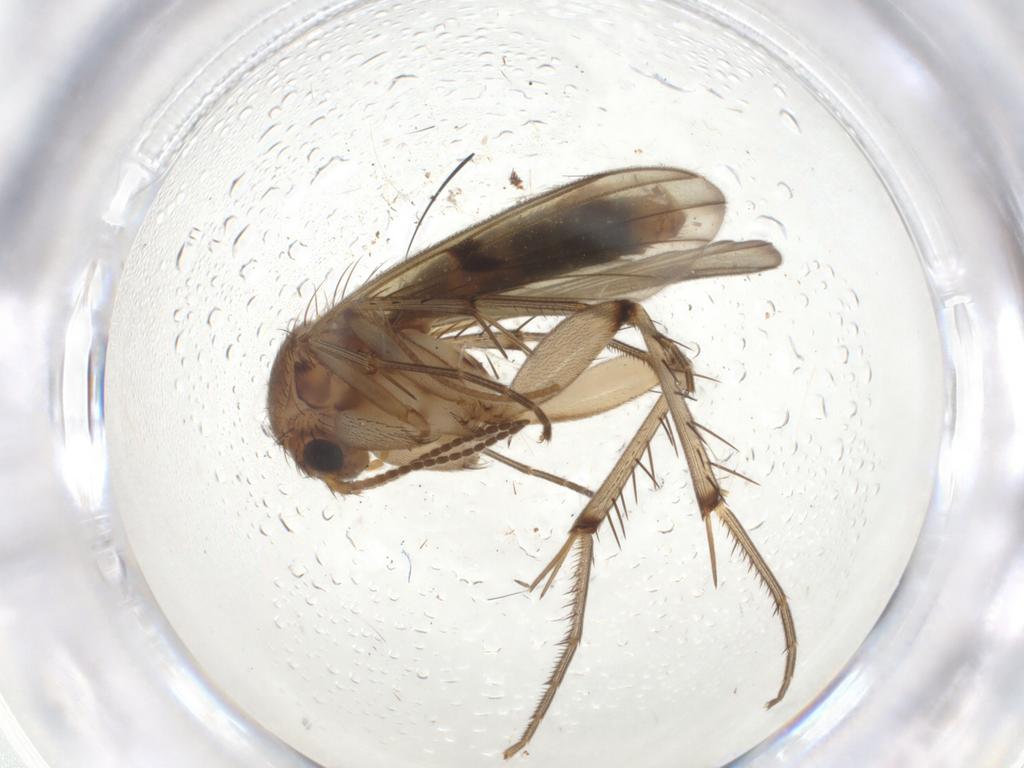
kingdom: Animalia
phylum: Arthropoda
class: Insecta
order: Diptera
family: Mycetophilidae
